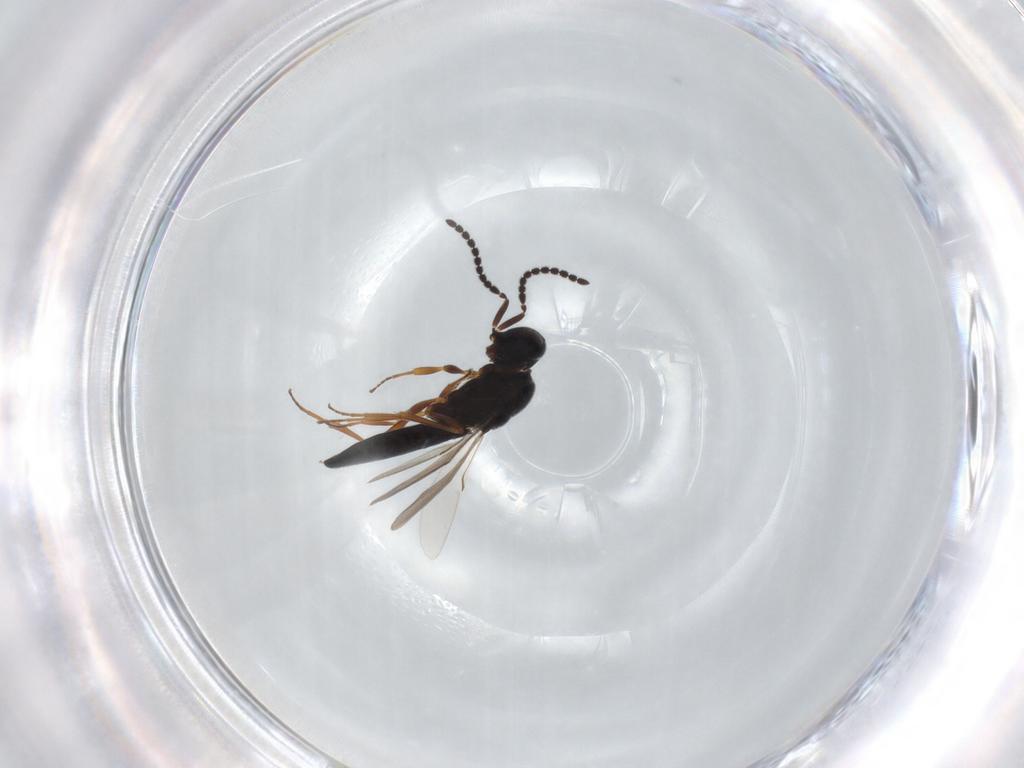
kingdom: Animalia
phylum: Arthropoda
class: Insecta
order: Hymenoptera
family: Scelionidae
